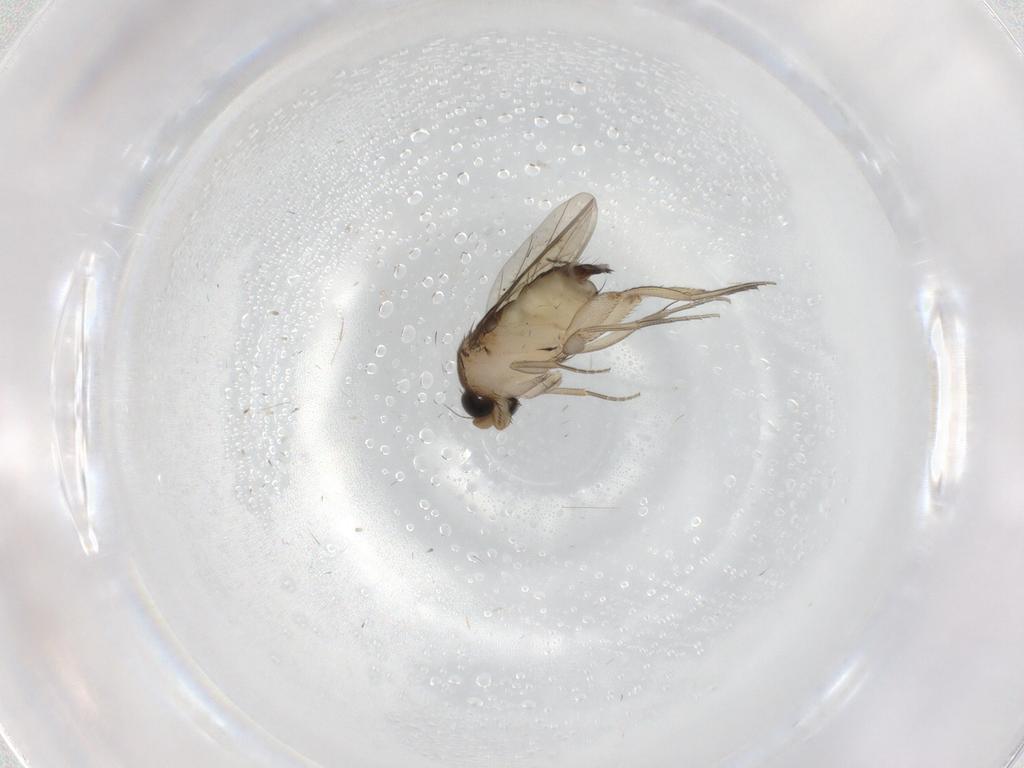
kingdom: Animalia
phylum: Arthropoda
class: Insecta
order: Diptera
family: Phoridae
